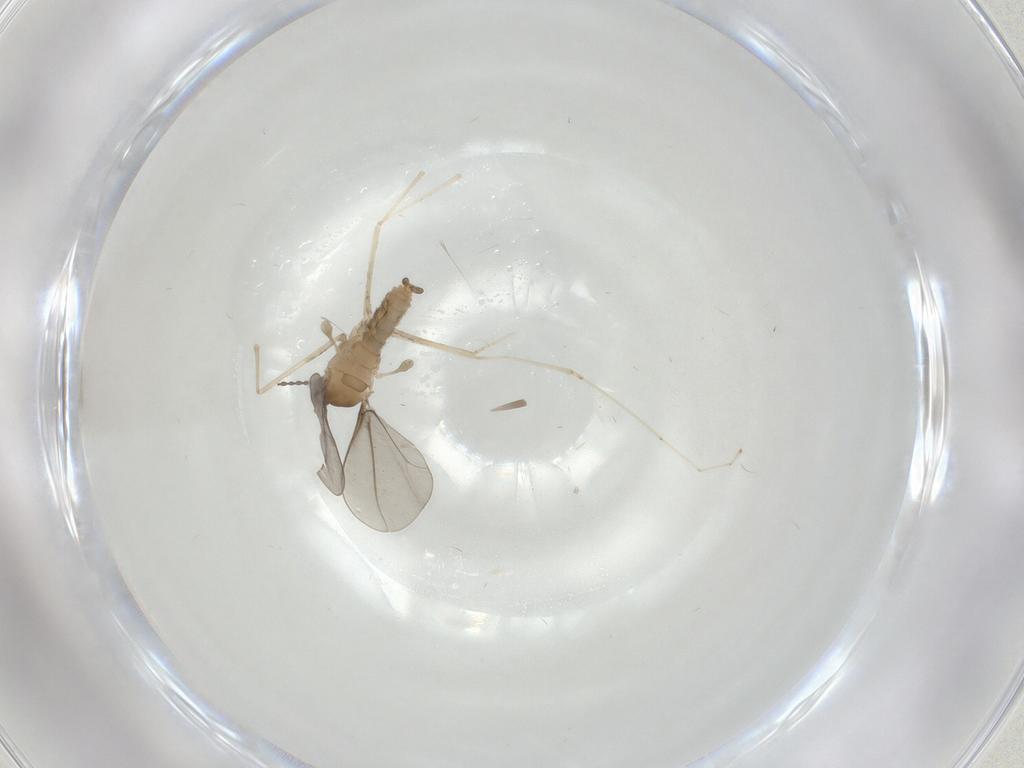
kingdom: Animalia
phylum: Arthropoda
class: Insecta
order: Diptera
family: Cecidomyiidae
